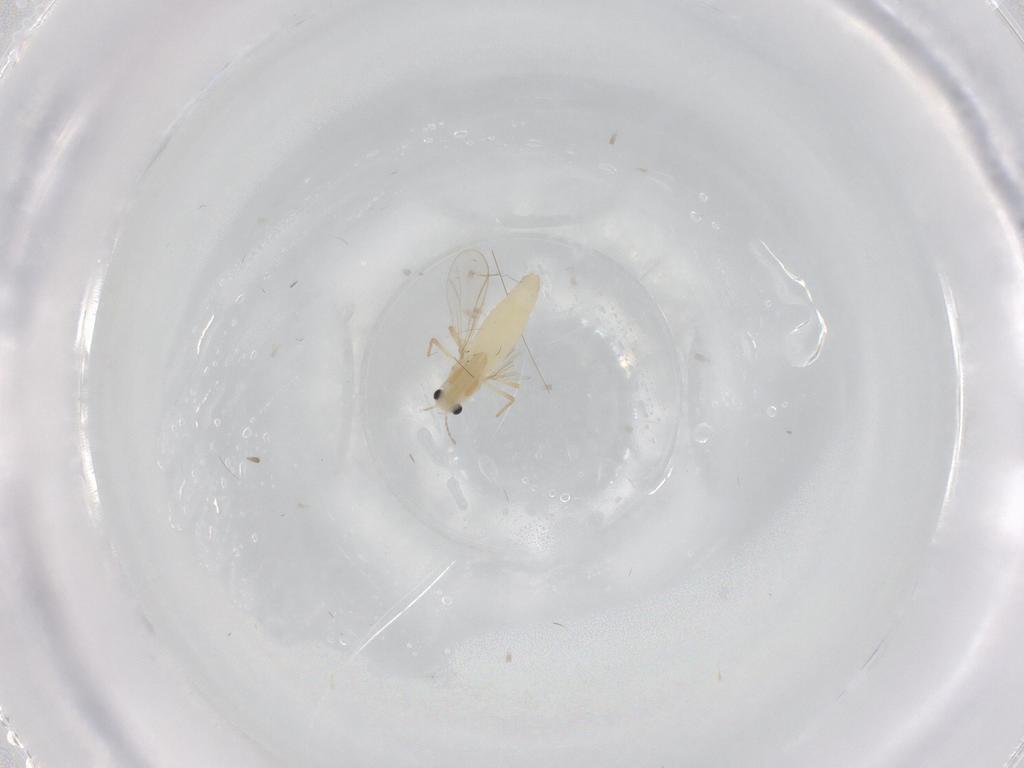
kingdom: Animalia
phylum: Arthropoda
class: Insecta
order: Diptera
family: Chironomidae
